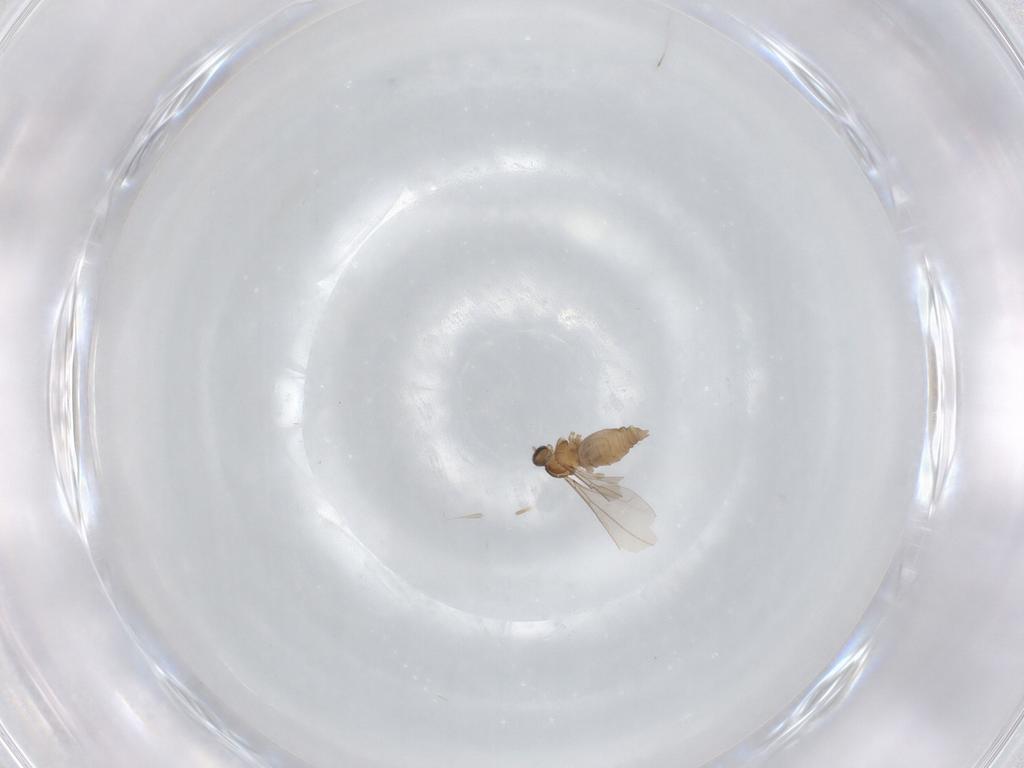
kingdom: Animalia
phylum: Arthropoda
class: Insecta
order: Diptera
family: Cecidomyiidae
